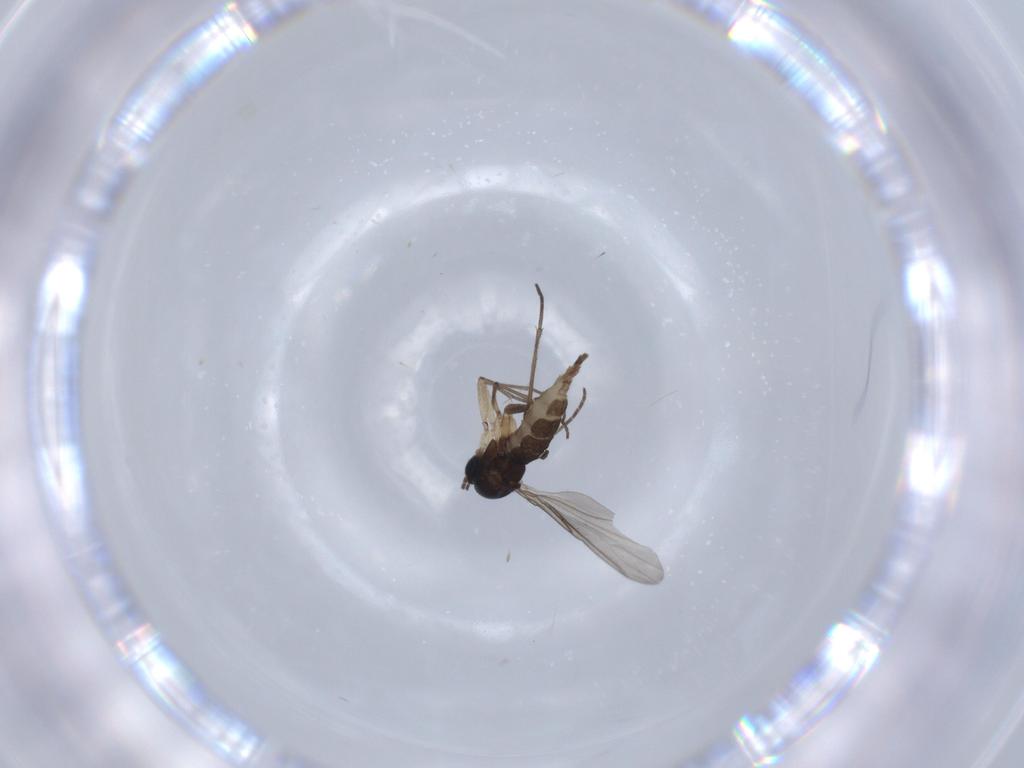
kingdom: Animalia
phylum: Arthropoda
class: Insecta
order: Diptera
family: Sciaridae
